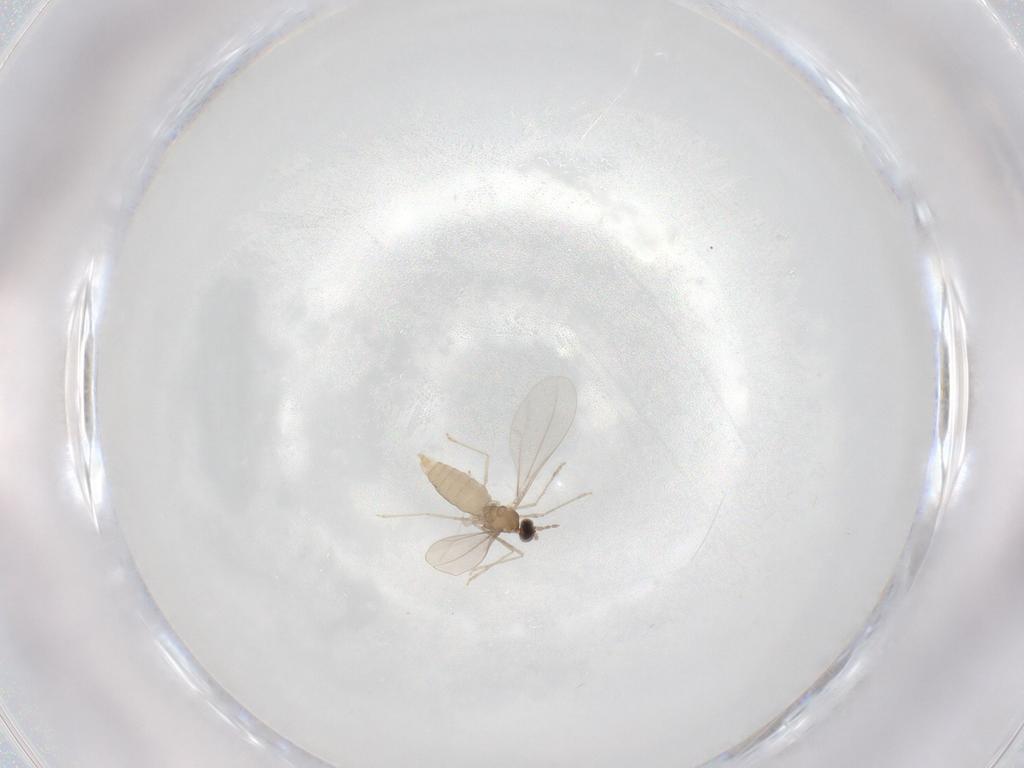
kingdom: Animalia
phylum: Arthropoda
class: Insecta
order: Diptera
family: Cecidomyiidae
